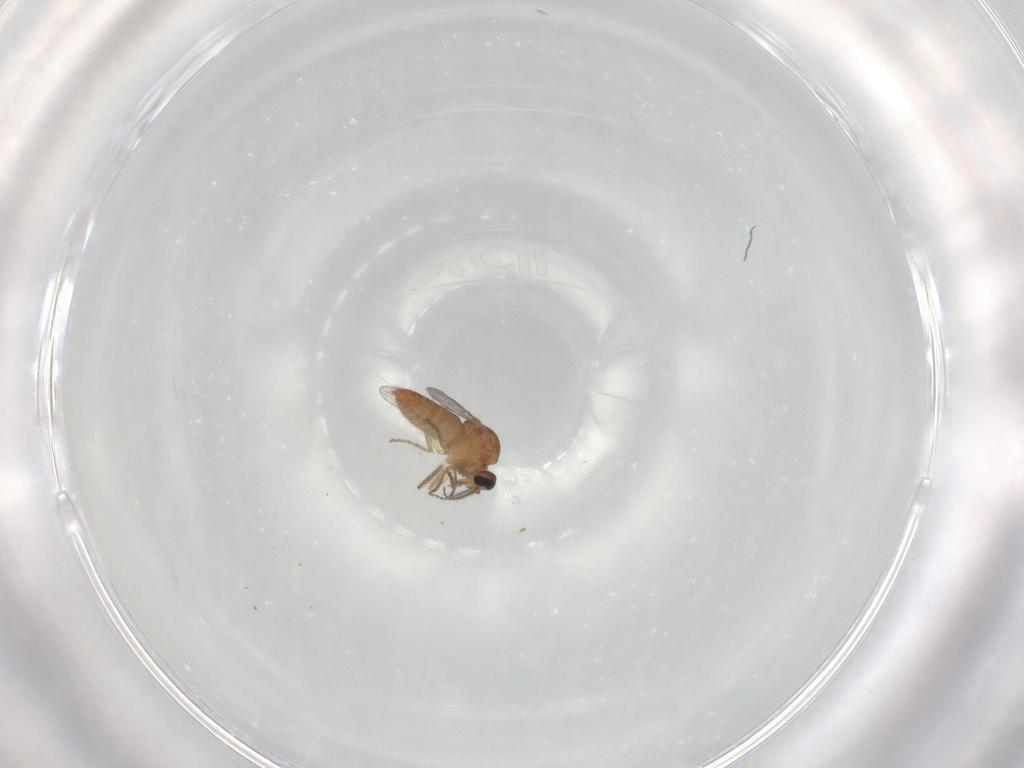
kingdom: Animalia
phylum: Arthropoda
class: Insecta
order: Diptera
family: Ceratopogonidae
